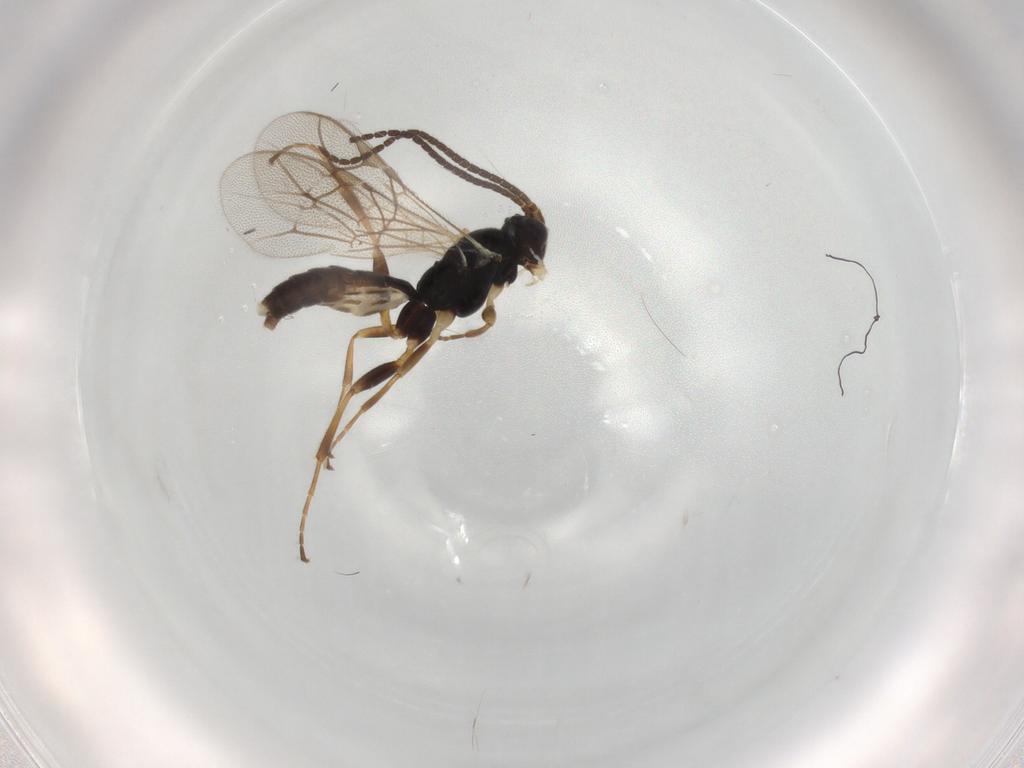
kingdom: Animalia
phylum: Arthropoda
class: Insecta
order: Hymenoptera
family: Ichneumonidae
